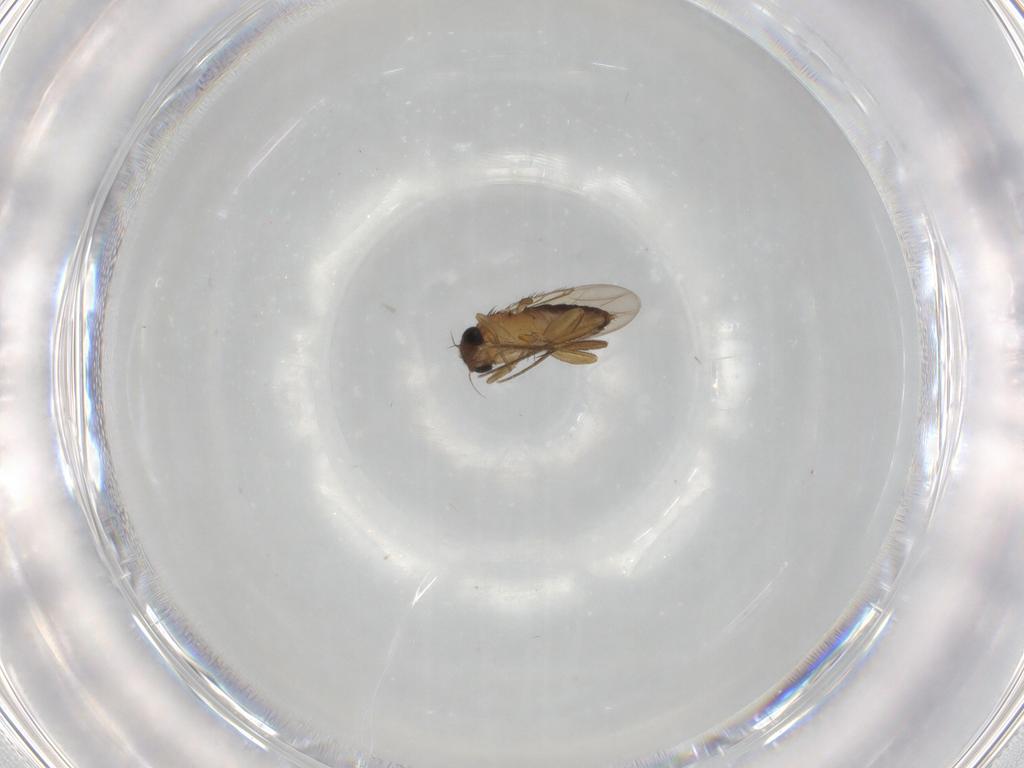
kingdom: Animalia
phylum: Arthropoda
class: Insecta
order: Diptera
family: Phoridae
